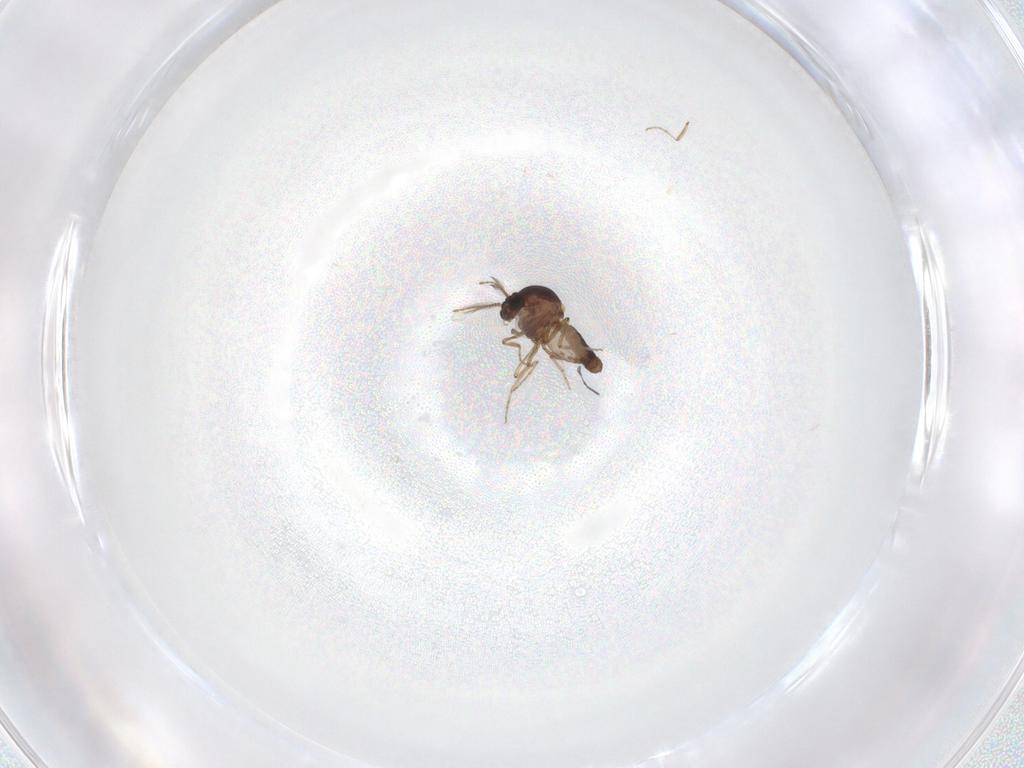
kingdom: Animalia
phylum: Arthropoda
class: Insecta
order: Diptera
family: Ceratopogonidae
